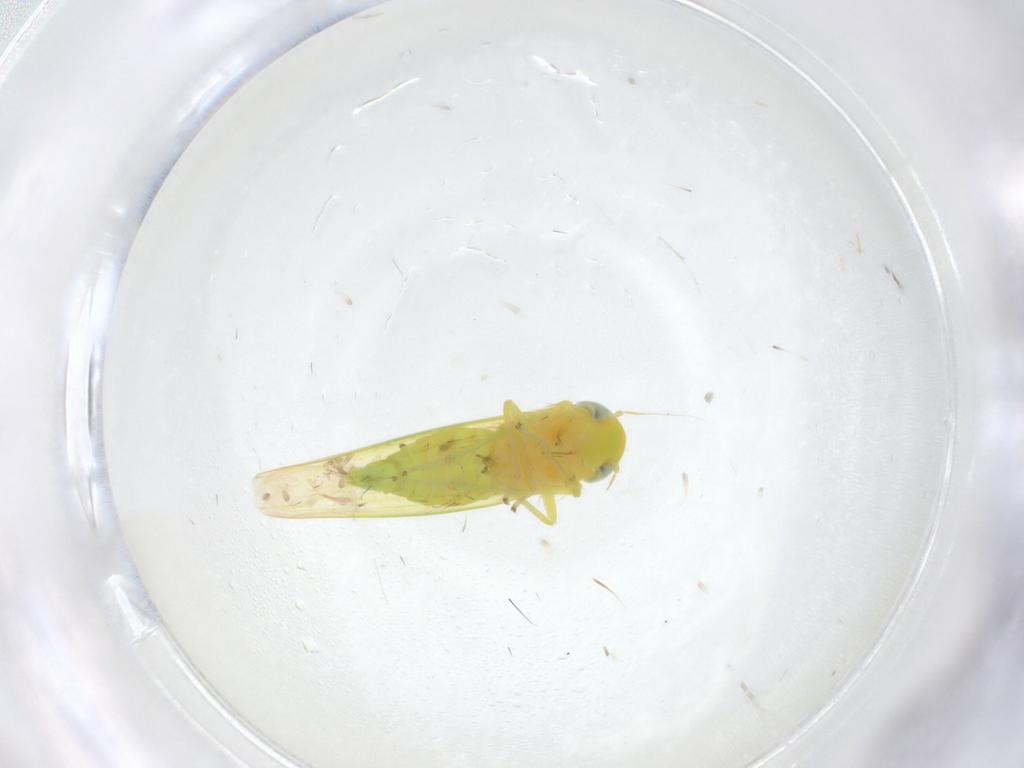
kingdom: Animalia
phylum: Arthropoda
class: Insecta
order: Hemiptera
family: Cicadellidae
